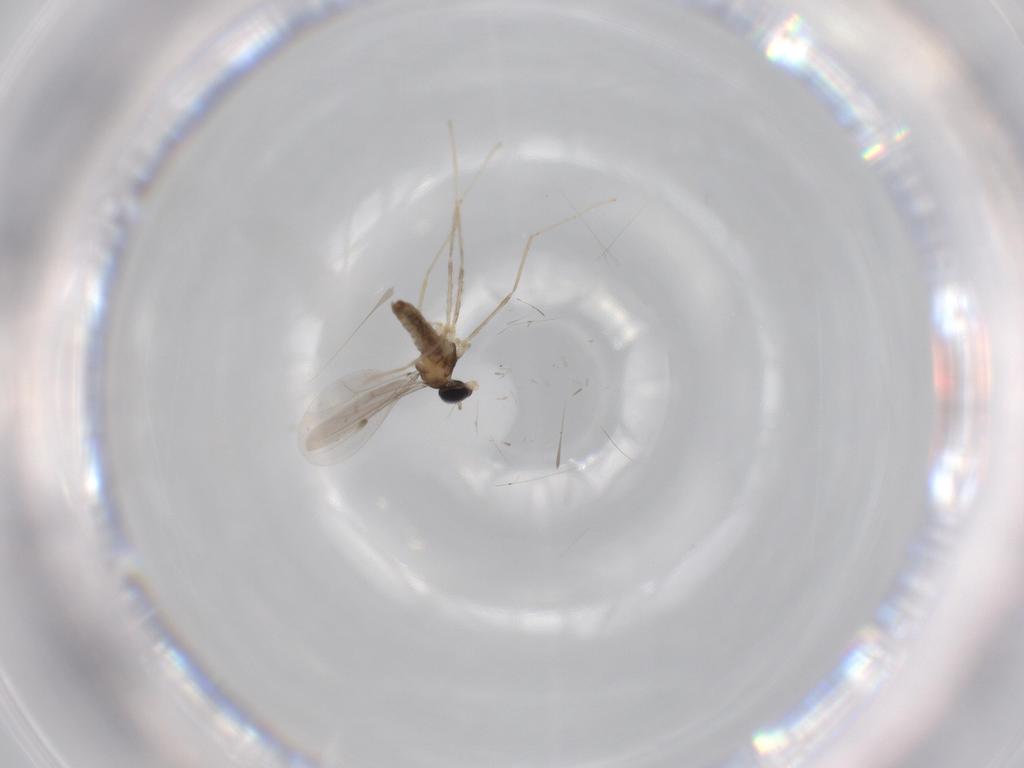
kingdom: Animalia
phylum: Arthropoda
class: Insecta
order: Diptera
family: Cecidomyiidae
